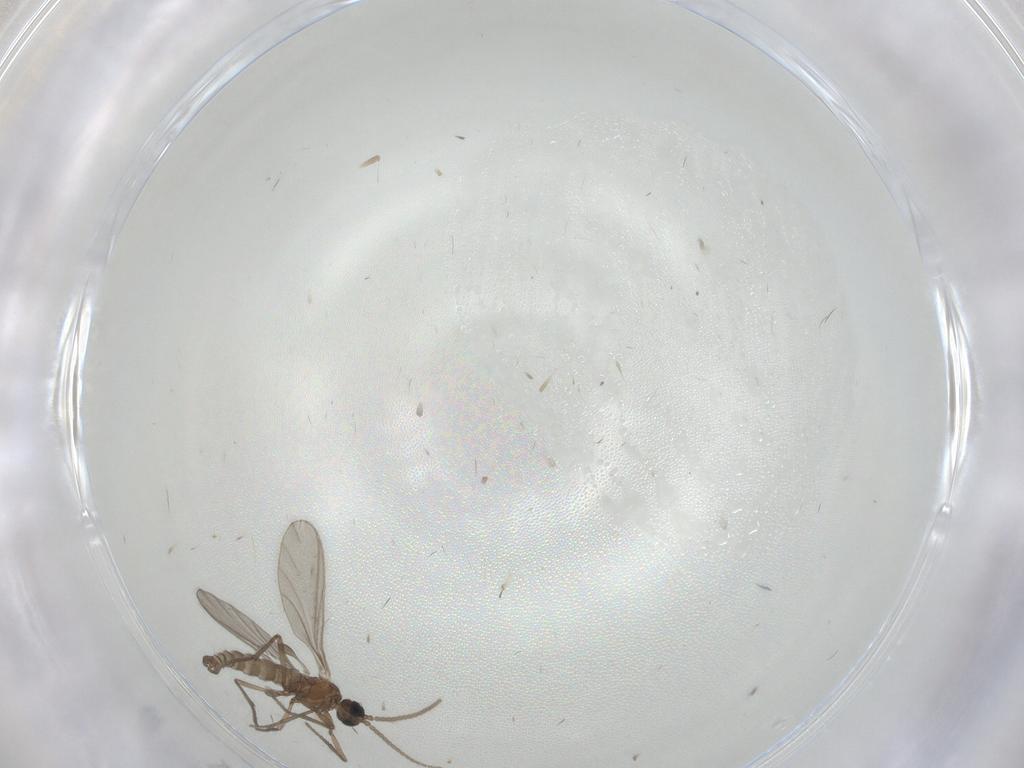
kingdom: Animalia
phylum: Arthropoda
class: Insecta
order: Diptera
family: Sciaridae
